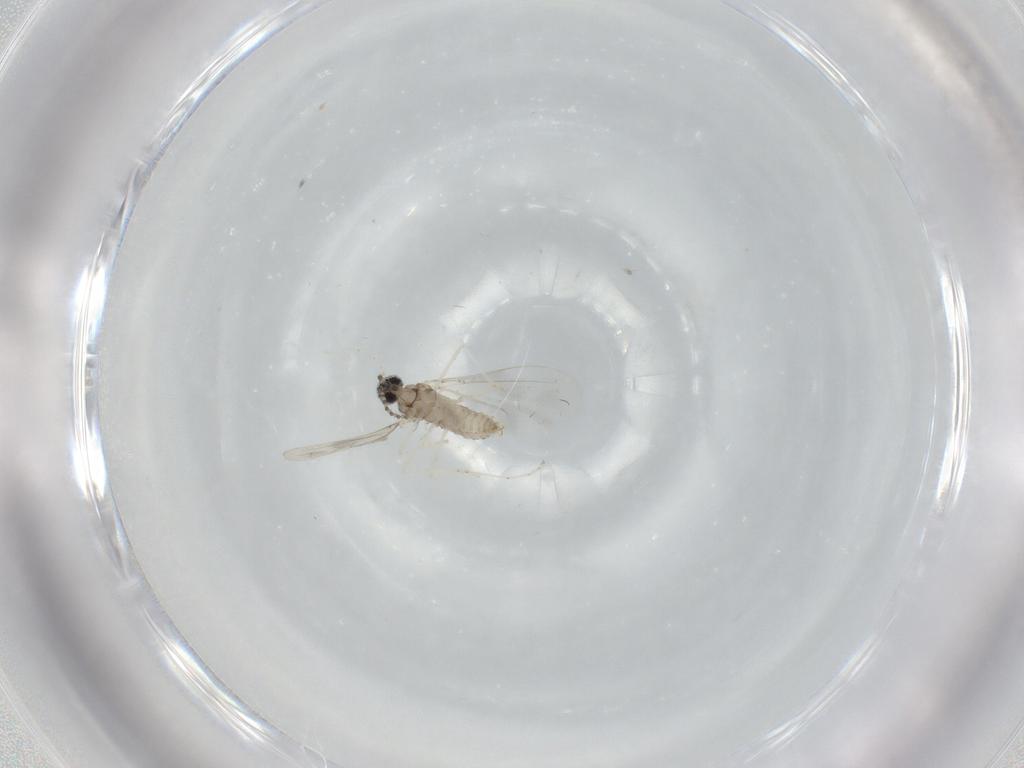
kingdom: Animalia
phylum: Arthropoda
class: Insecta
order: Diptera
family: Cecidomyiidae
